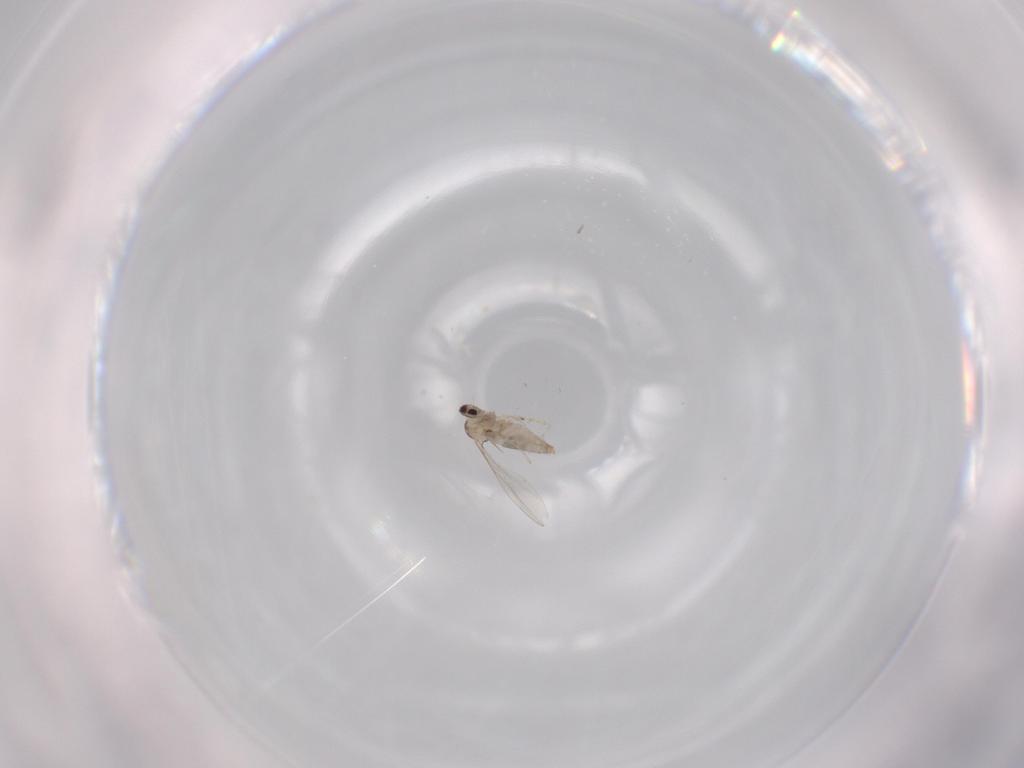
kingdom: Animalia
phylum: Arthropoda
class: Insecta
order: Diptera
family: Cecidomyiidae
